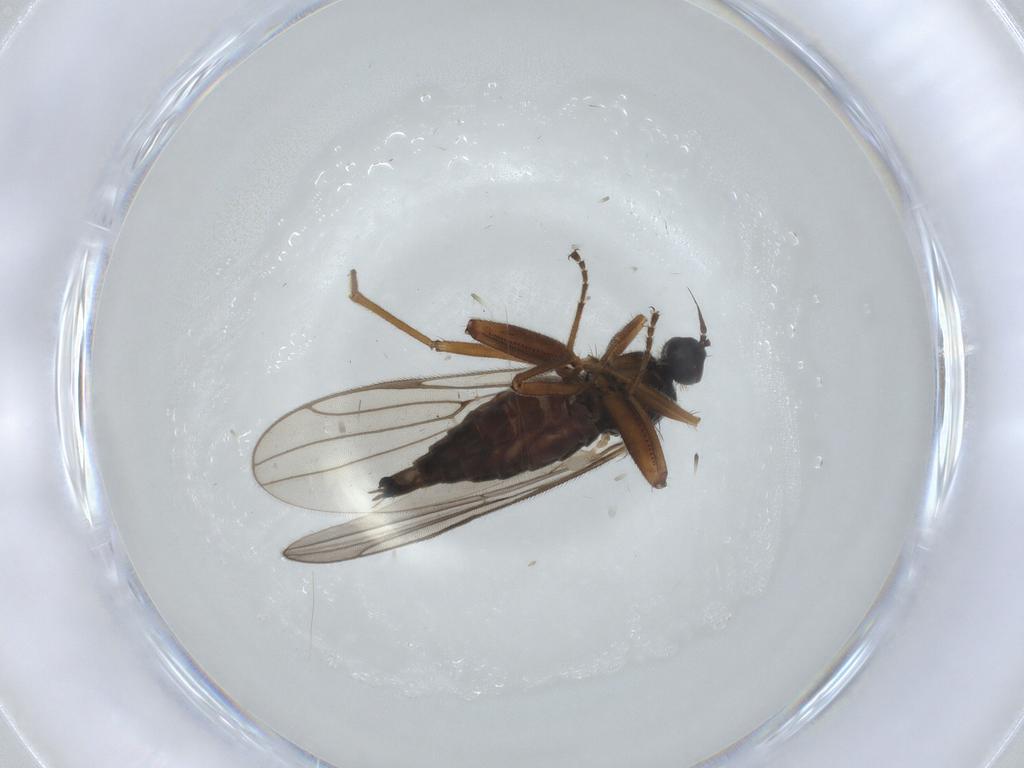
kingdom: Animalia
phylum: Arthropoda
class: Insecta
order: Diptera
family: Hybotidae
